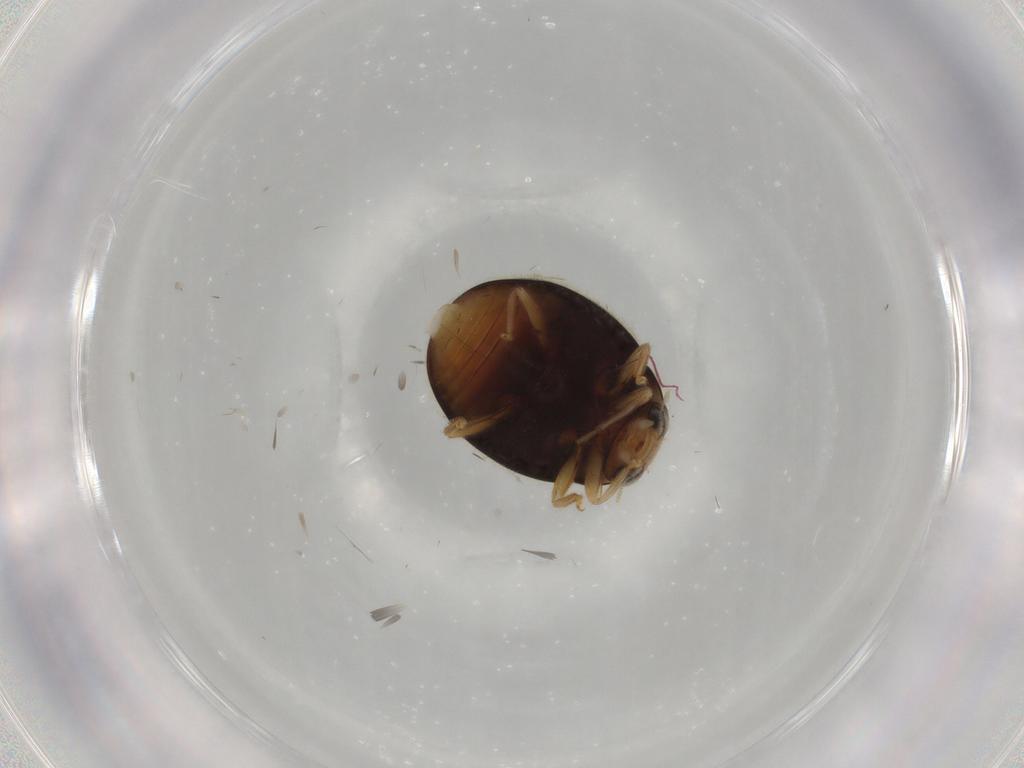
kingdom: Animalia
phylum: Arthropoda
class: Insecta
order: Coleoptera
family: Coccinellidae
